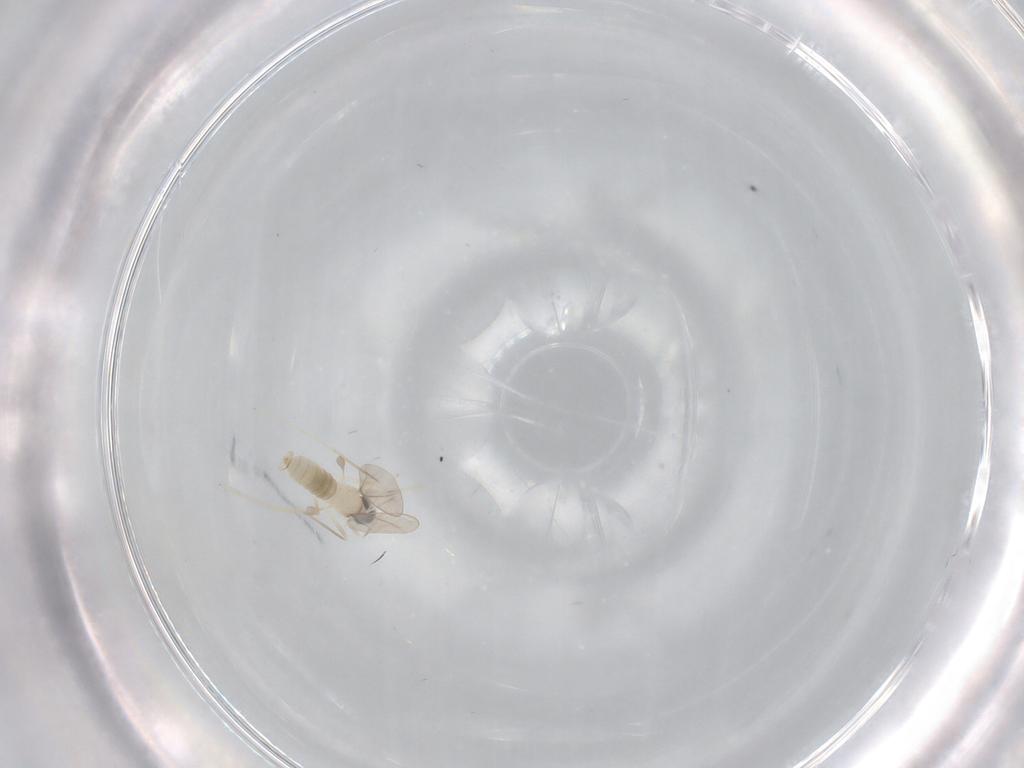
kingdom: Animalia
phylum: Arthropoda
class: Insecta
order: Diptera
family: Cecidomyiidae
